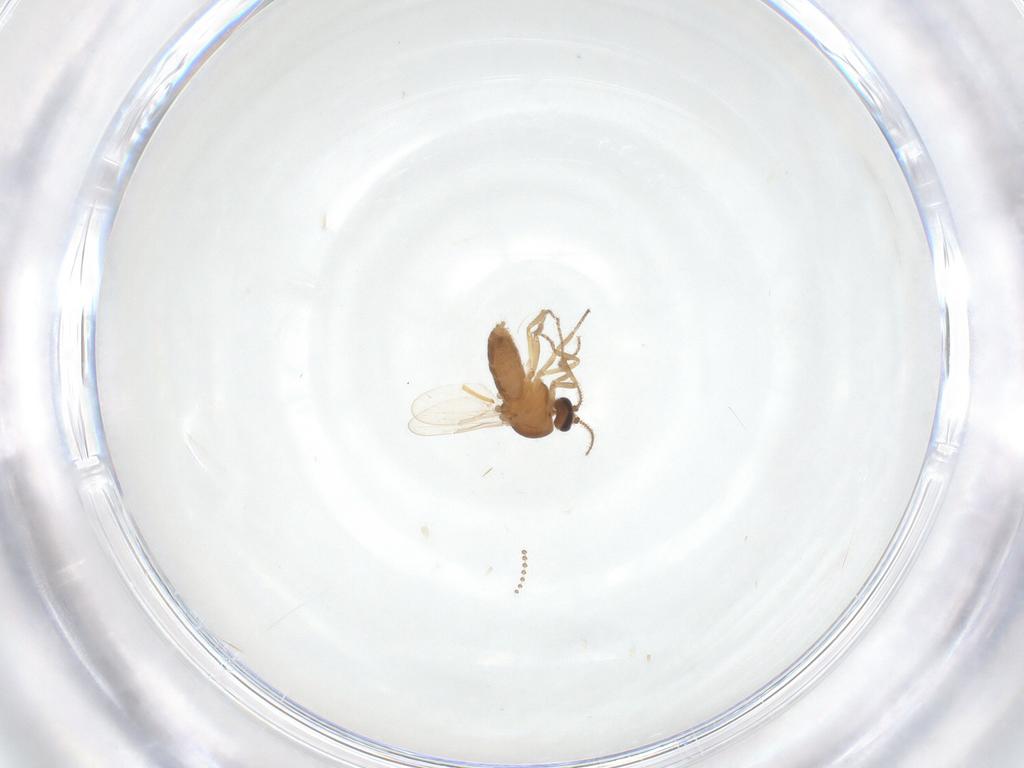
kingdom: Animalia
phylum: Arthropoda
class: Insecta
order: Diptera
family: Ceratopogonidae
